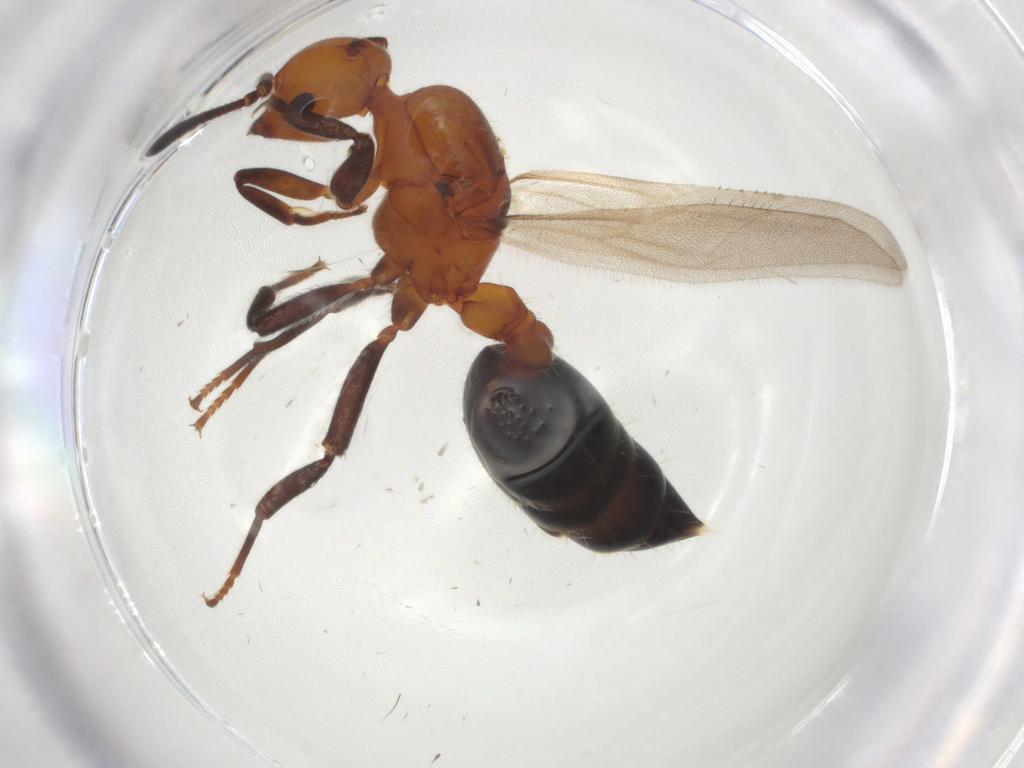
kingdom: Animalia
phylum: Arthropoda
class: Insecta
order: Hymenoptera
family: Formicidae
